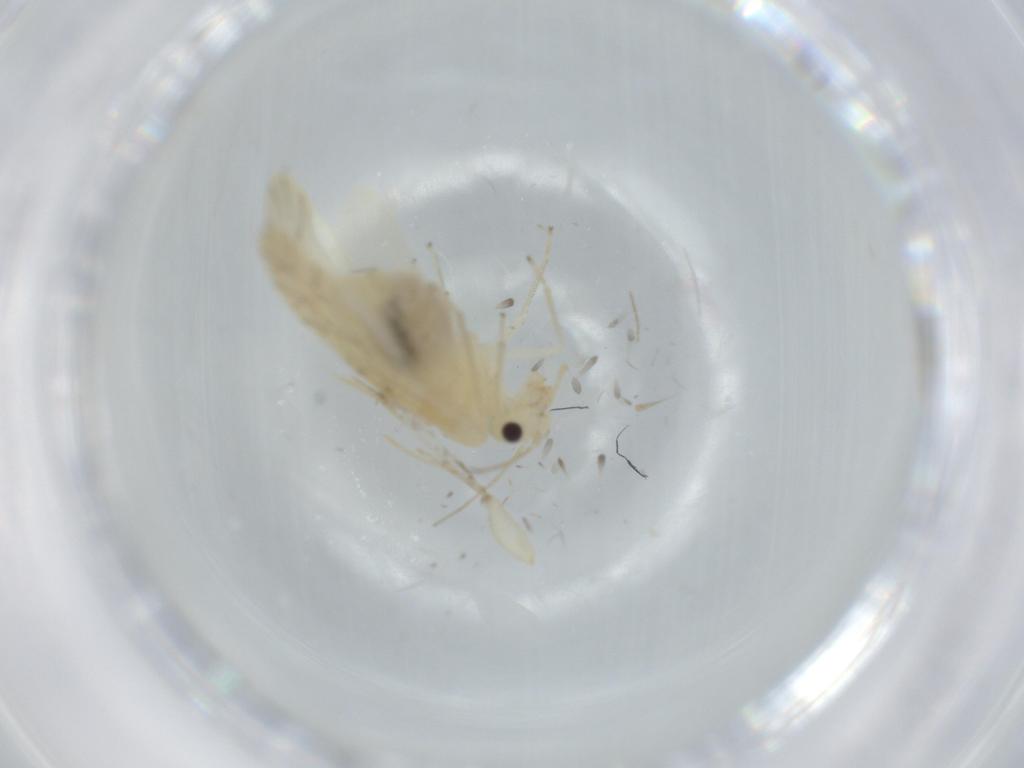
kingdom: Animalia
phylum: Arthropoda
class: Insecta
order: Psocodea
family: Caeciliusidae
